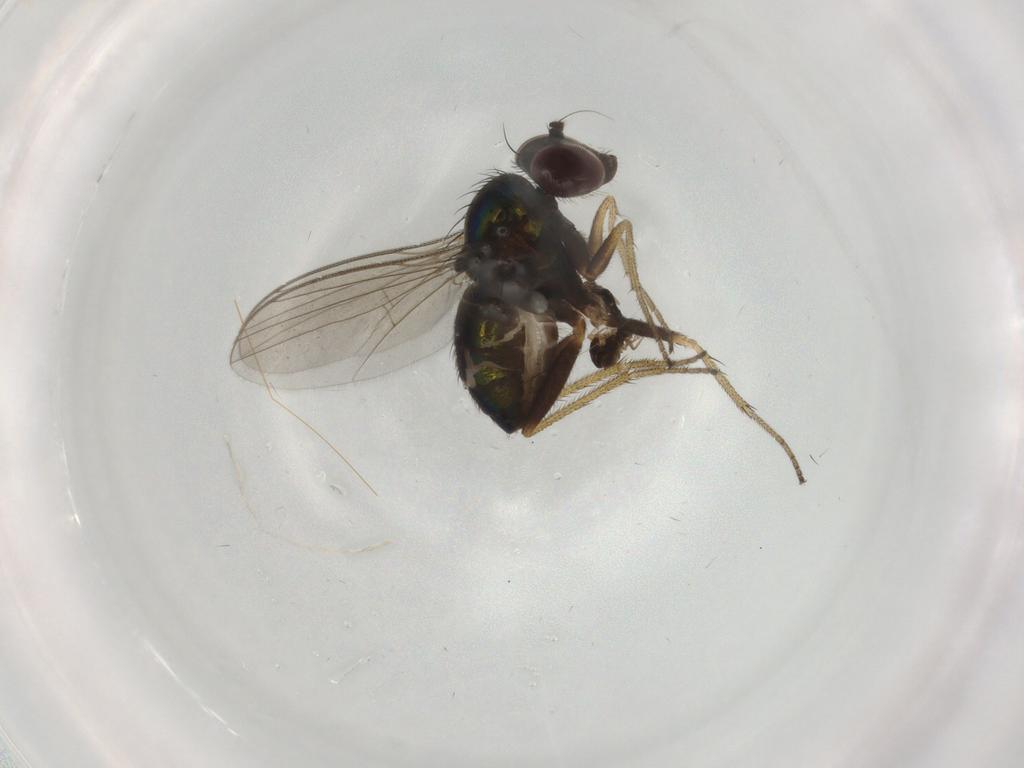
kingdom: Animalia
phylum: Arthropoda
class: Insecta
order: Diptera
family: Chironomidae
